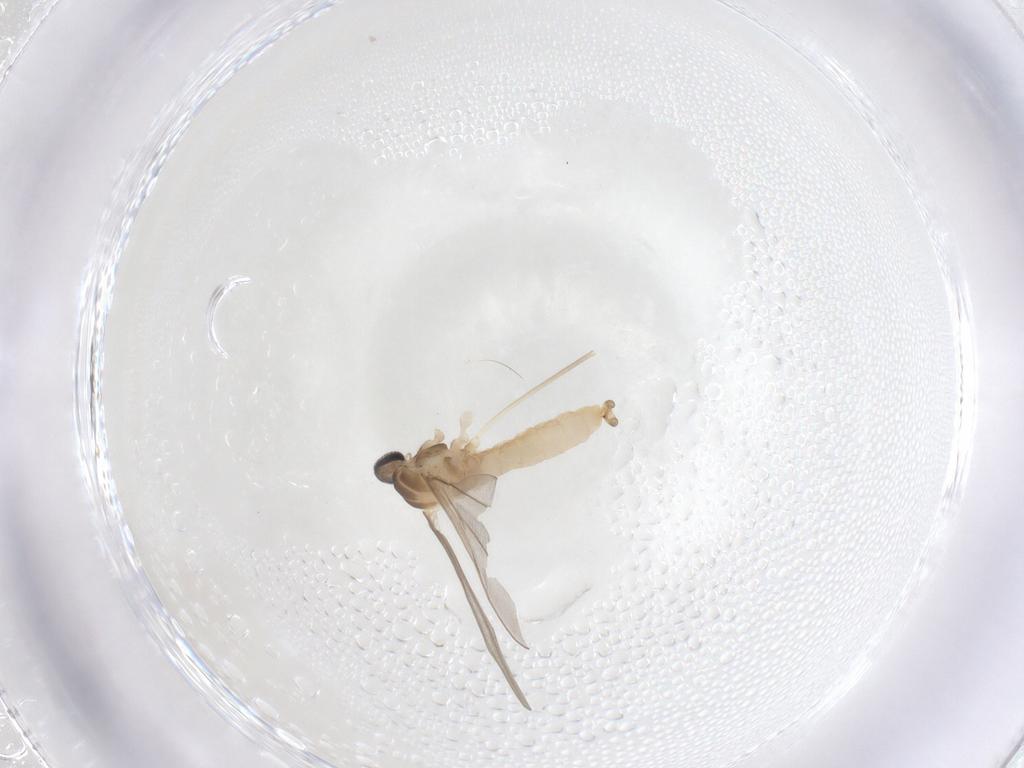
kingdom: Animalia
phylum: Arthropoda
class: Insecta
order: Diptera
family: Cecidomyiidae
